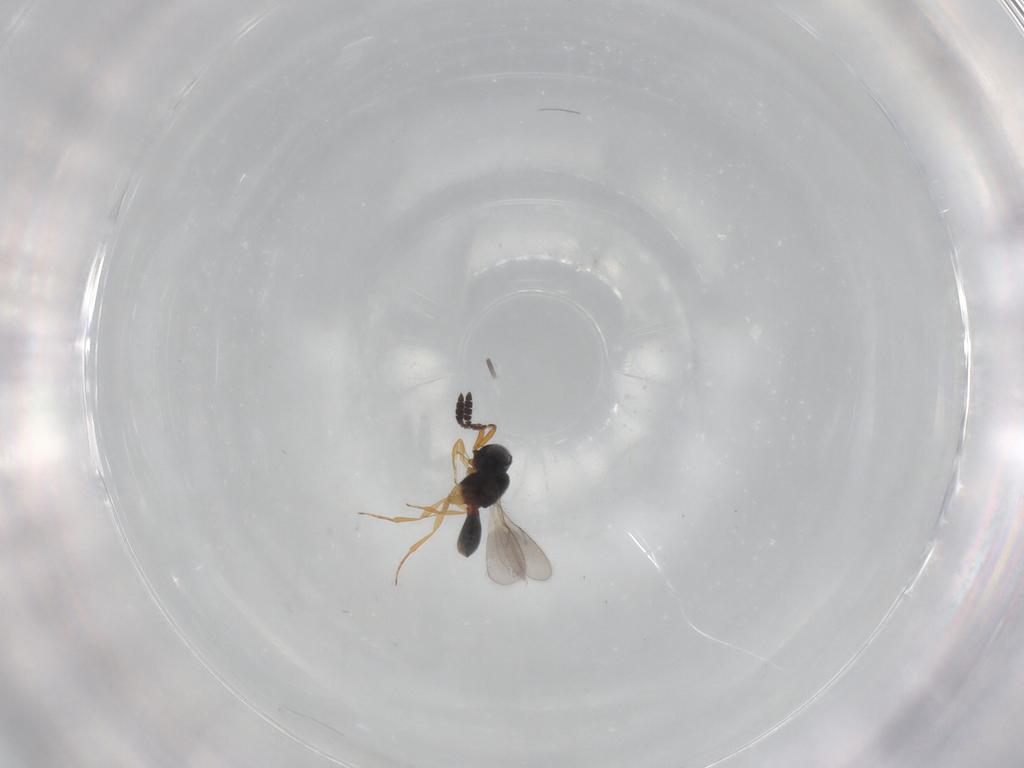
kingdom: Animalia
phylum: Arthropoda
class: Insecta
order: Hymenoptera
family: Scelionidae
